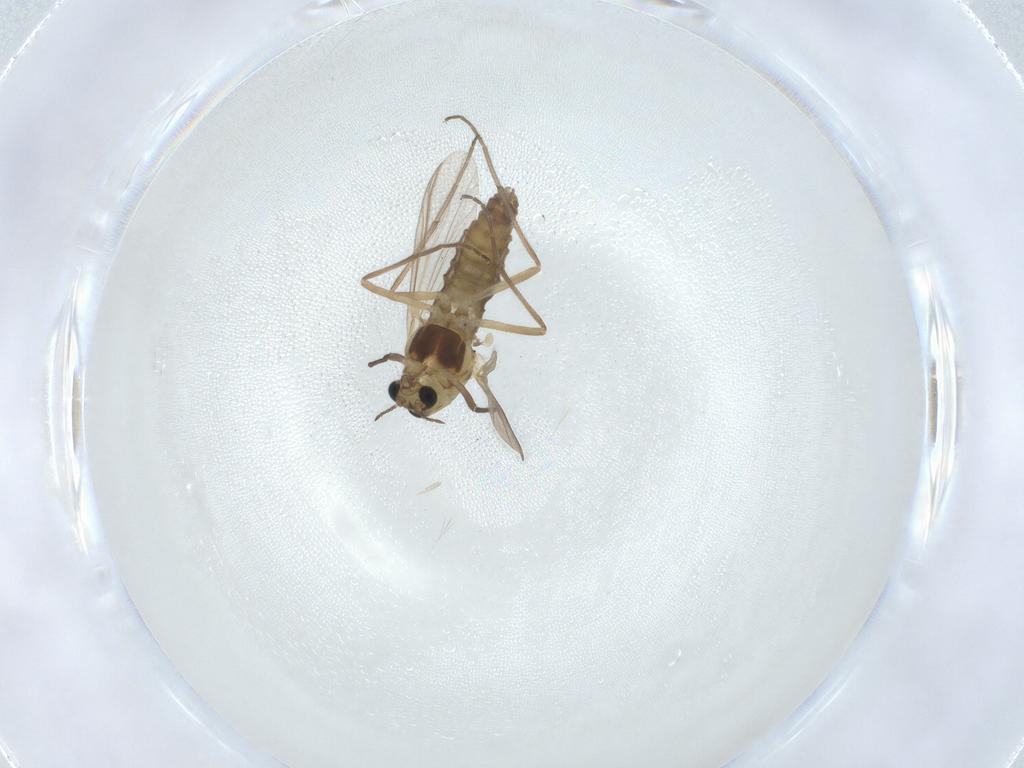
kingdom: Animalia
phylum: Arthropoda
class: Insecta
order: Diptera
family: Chironomidae
